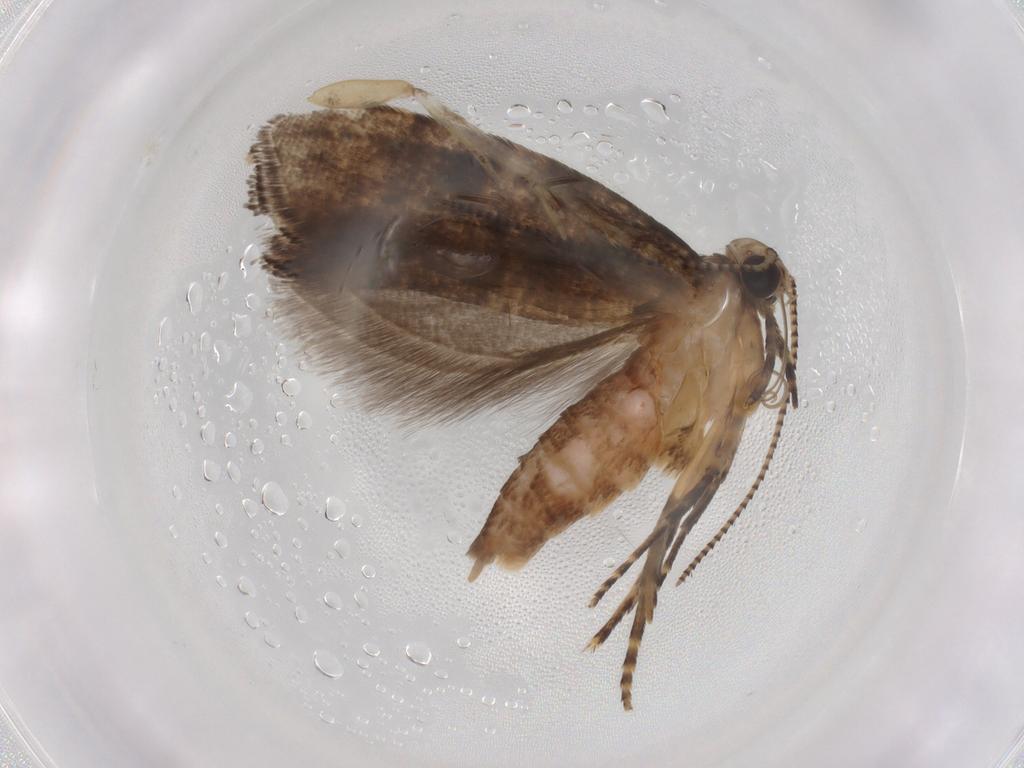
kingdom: Animalia
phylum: Arthropoda
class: Insecta
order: Lepidoptera
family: Glyphipterigidae
